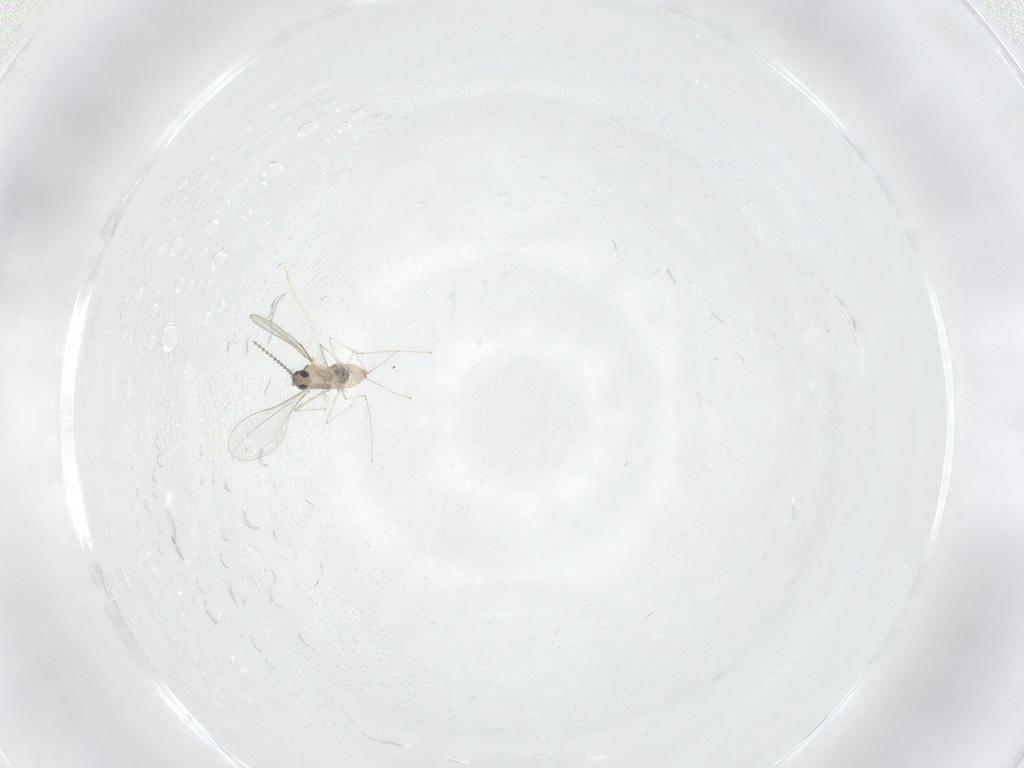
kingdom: Animalia
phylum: Arthropoda
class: Insecta
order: Diptera
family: Cecidomyiidae
